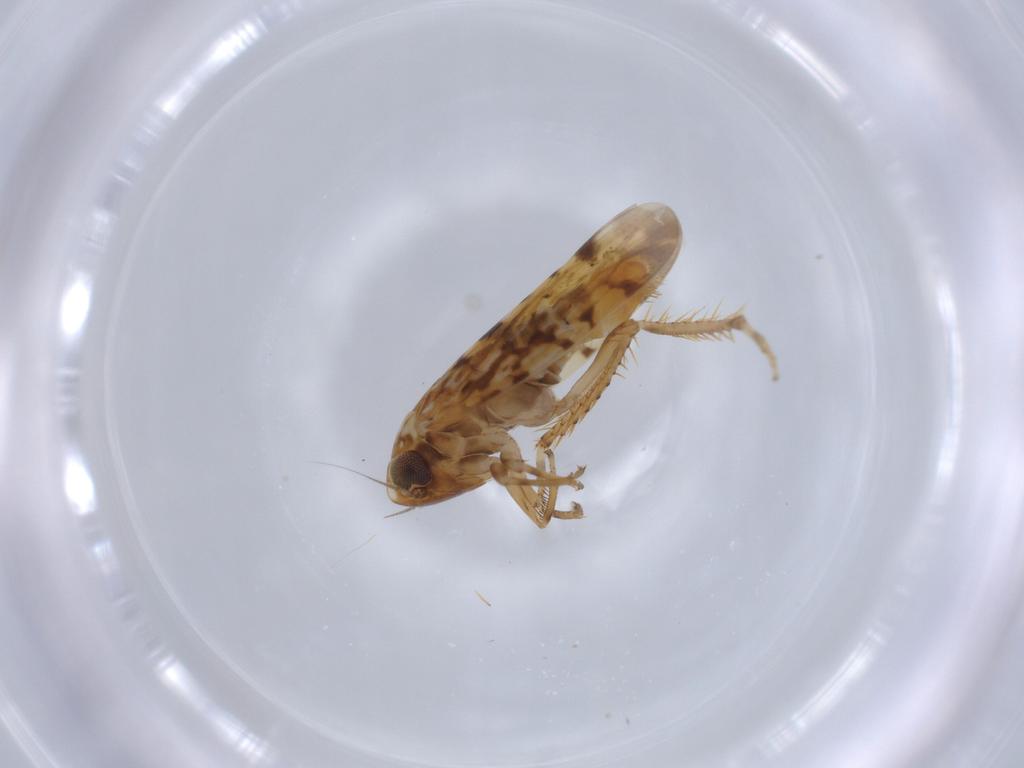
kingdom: Animalia
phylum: Arthropoda
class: Insecta
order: Hemiptera
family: Cicadellidae
